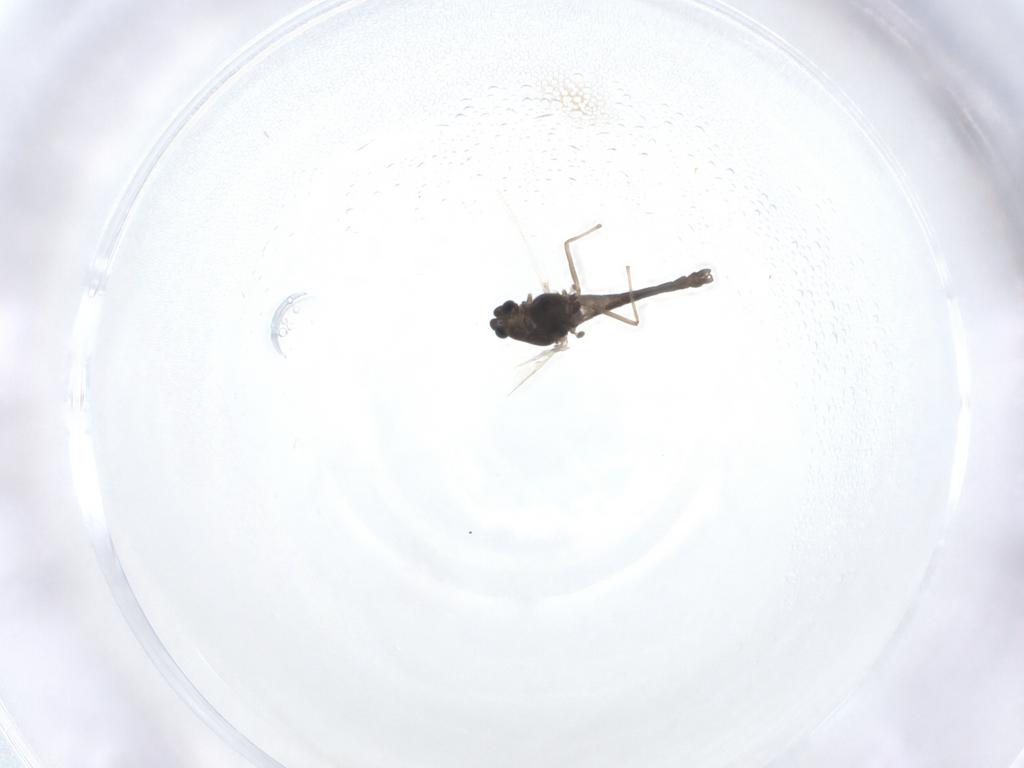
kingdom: Animalia
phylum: Arthropoda
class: Insecta
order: Diptera
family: Chironomidae
